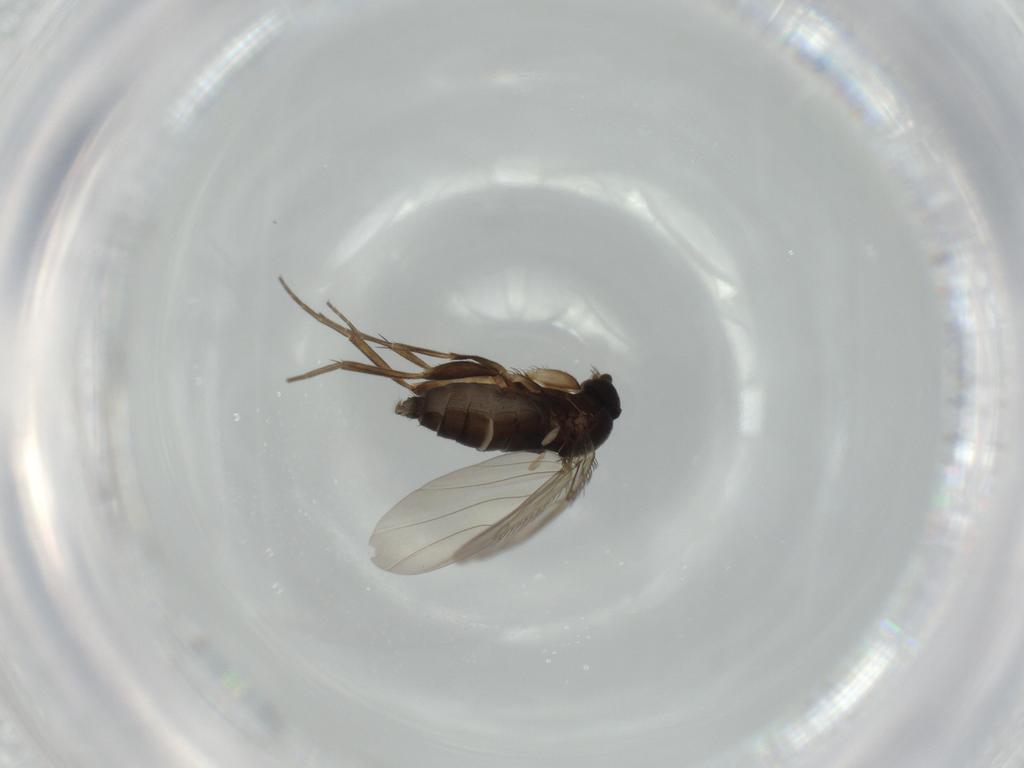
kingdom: Animalia
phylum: Arthropoda
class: Insecta
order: Diptera
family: Phoridae
